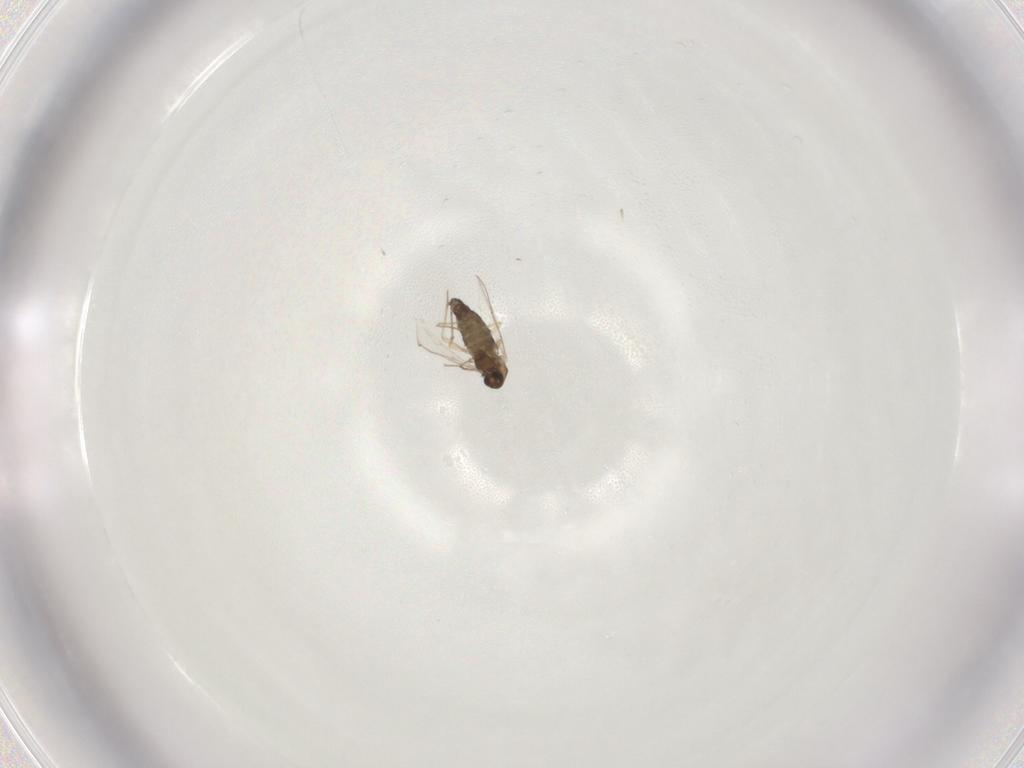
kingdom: Animalia
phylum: Arthropoda
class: Insecta
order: Diptera
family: Chironomidae
